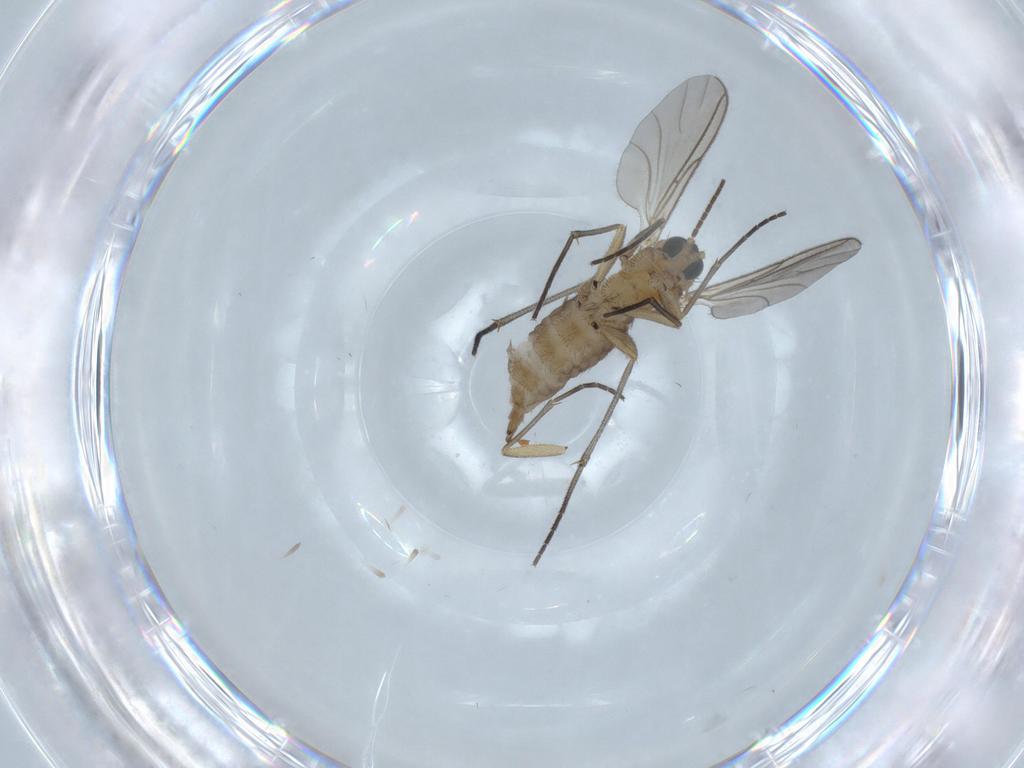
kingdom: Animalia
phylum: Arthropoda
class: Insecta
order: Diptera
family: Sciaridae
